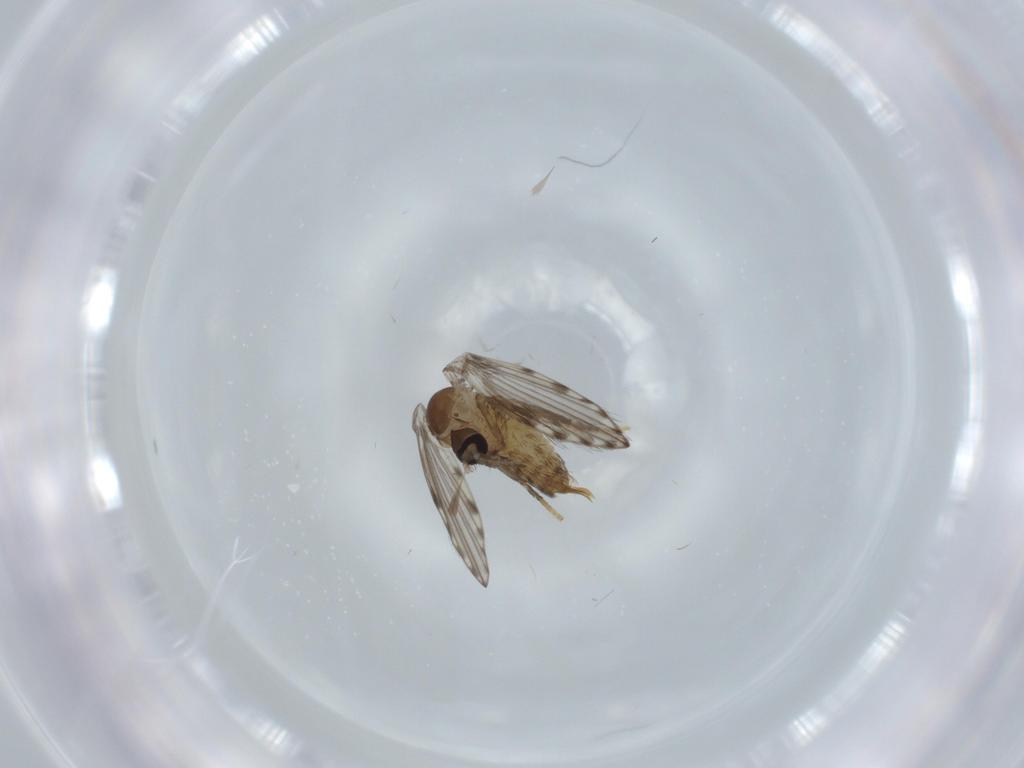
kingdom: Animalia
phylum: Arthropoda
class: Insecta
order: Diptera
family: Psychodidae
